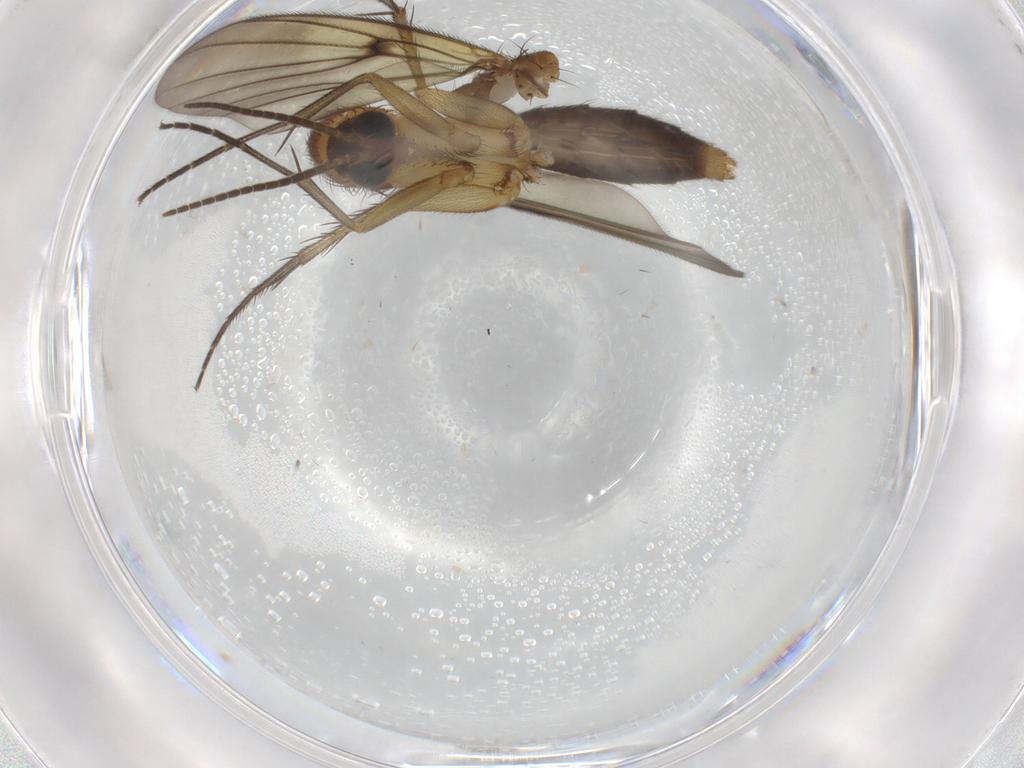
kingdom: Animalia
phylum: Arthropoda
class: Insecta
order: Diptera
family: Mycetophilidae
